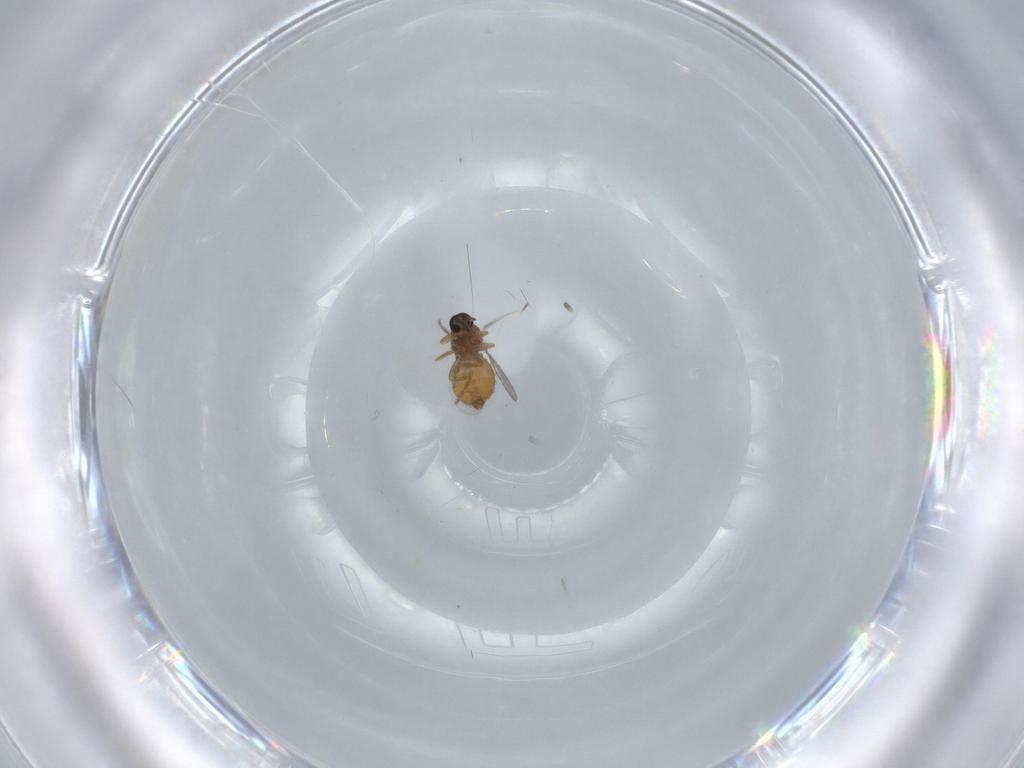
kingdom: Animalia
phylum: Arthropoda
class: Insecta
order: Diptera
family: Ceratopogonidae
